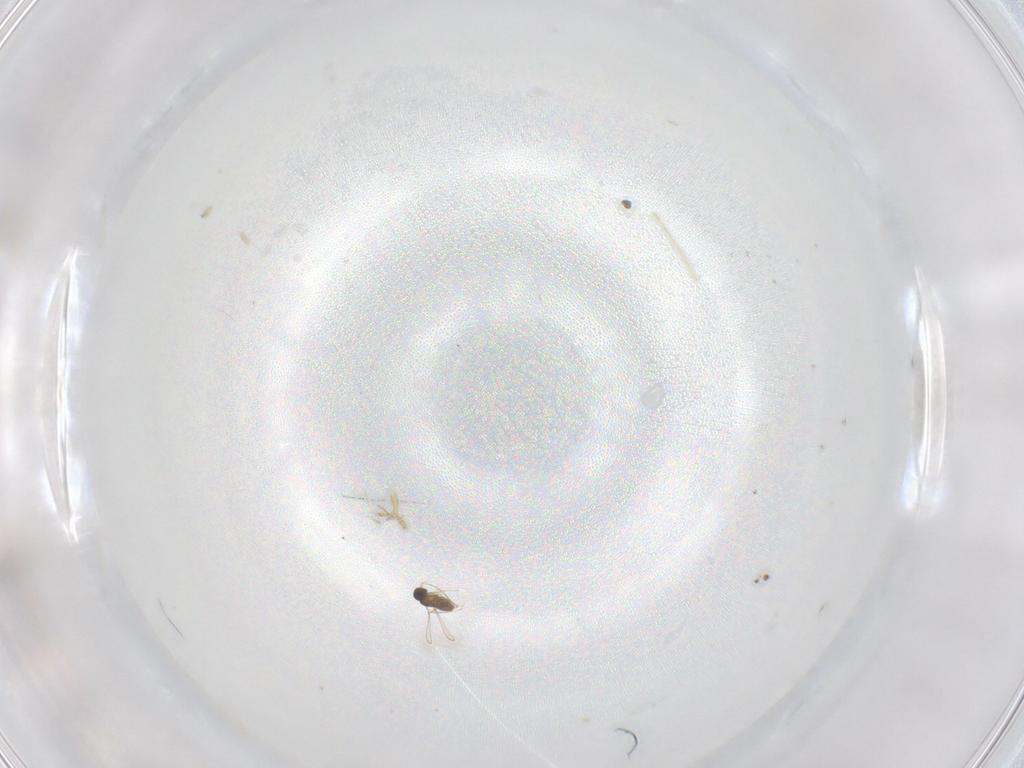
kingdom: Animalia
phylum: Arthropoda
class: Insecta
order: Hymenoptera
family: Mymaridae
